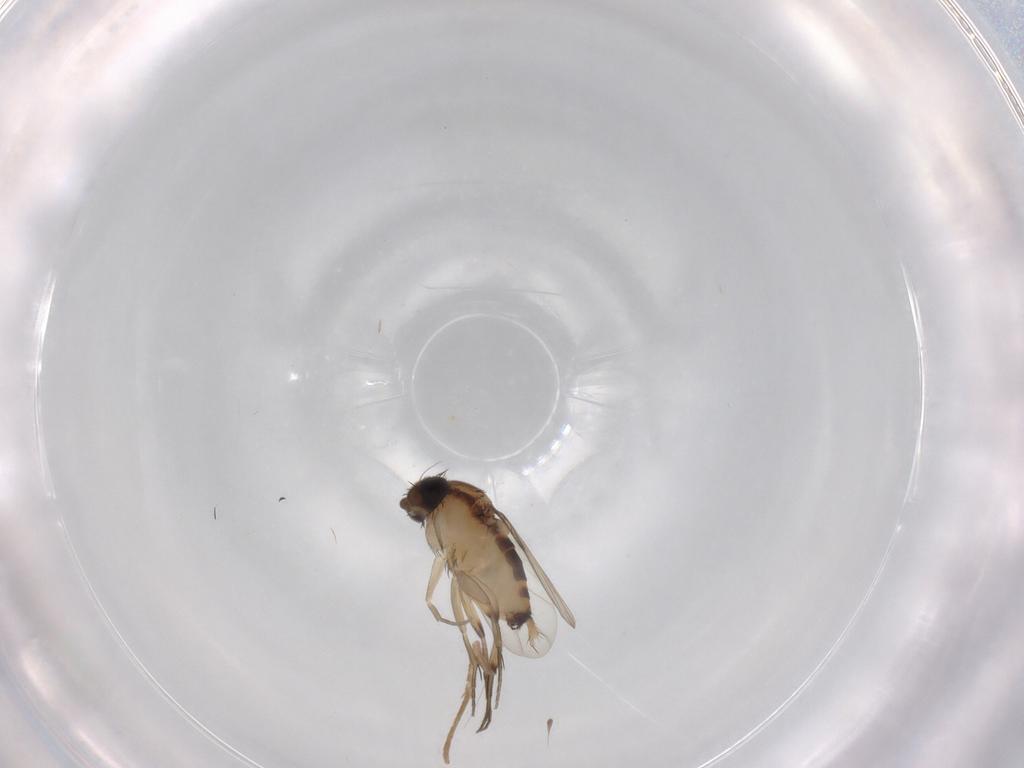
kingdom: Animalia
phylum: Arthropoda
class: Insecta
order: Diptera
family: Phoridae
